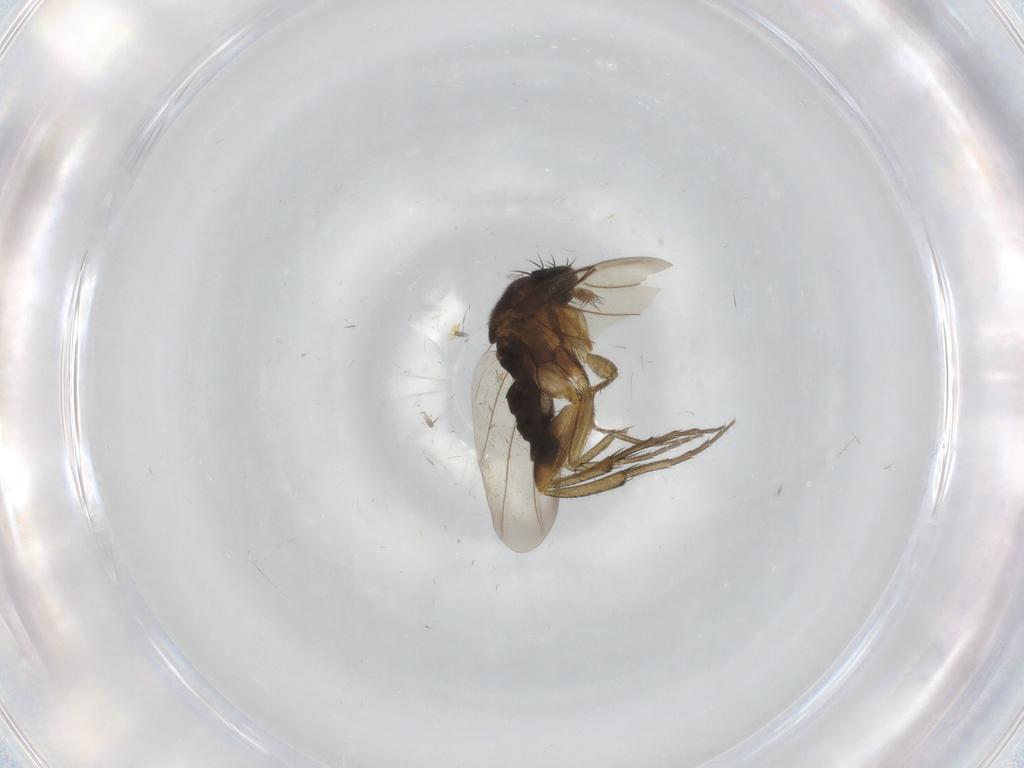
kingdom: Animalia
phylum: Arthropoda
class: Insecta
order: Diptera
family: Phoridae
